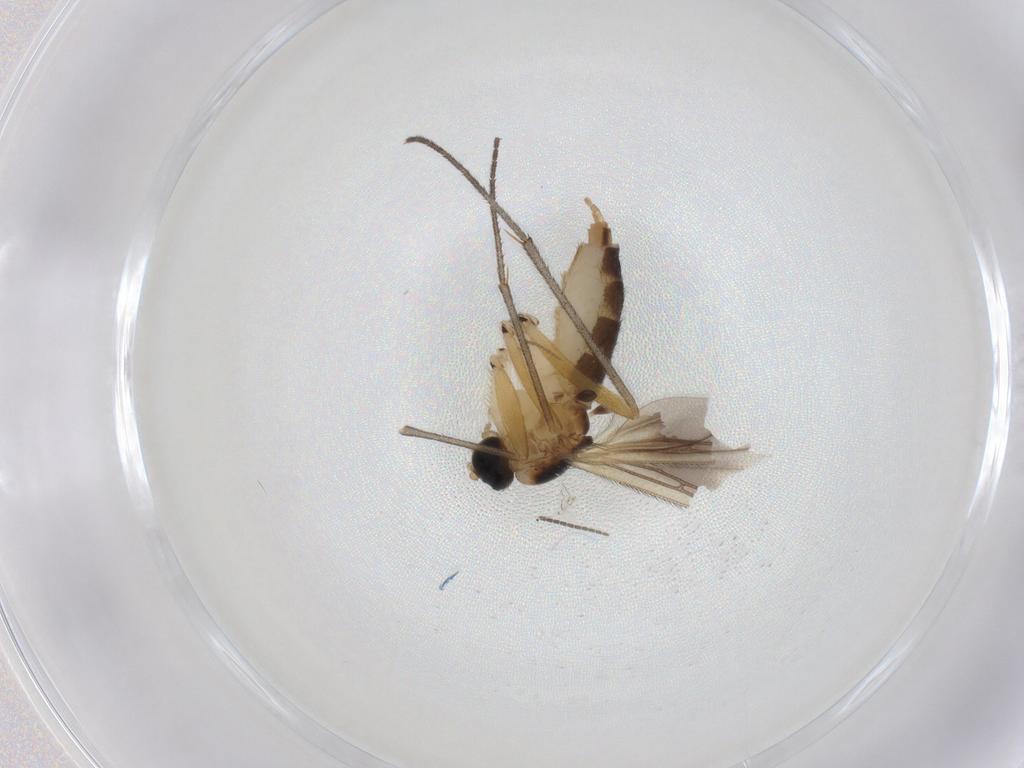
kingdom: Animalia
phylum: Arthropoda
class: Insecta
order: Diptera
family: Sciaridae
